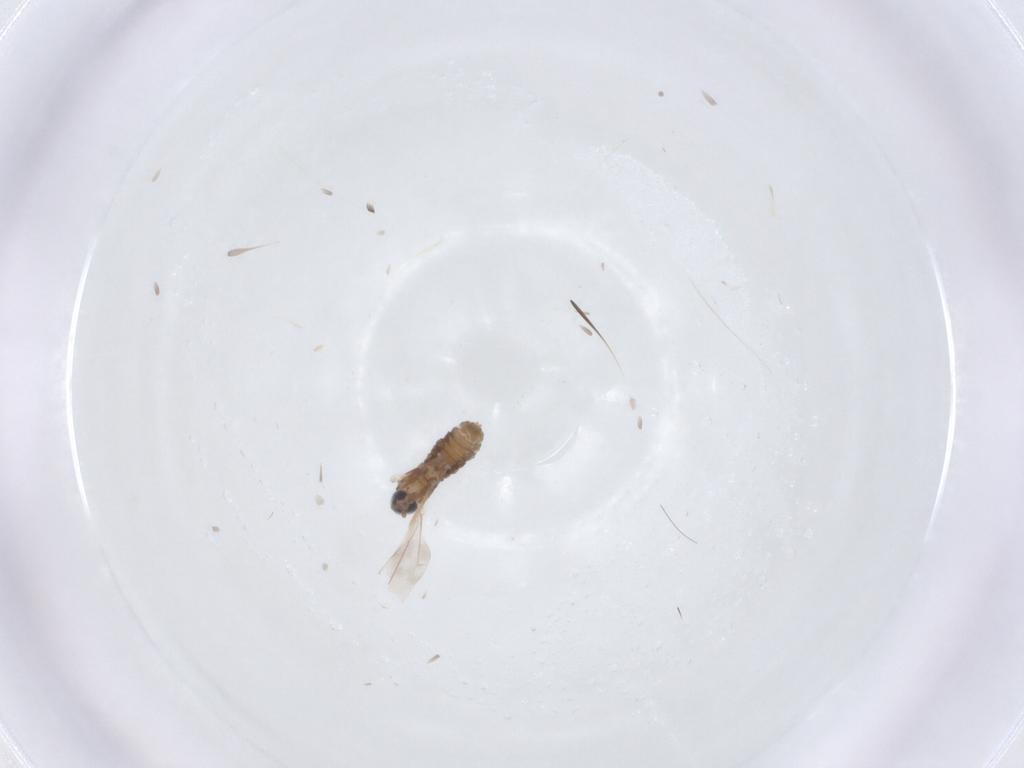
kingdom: Animalia
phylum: Arthropoda
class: Insecta
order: Diptera
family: Cecidomyiidae
